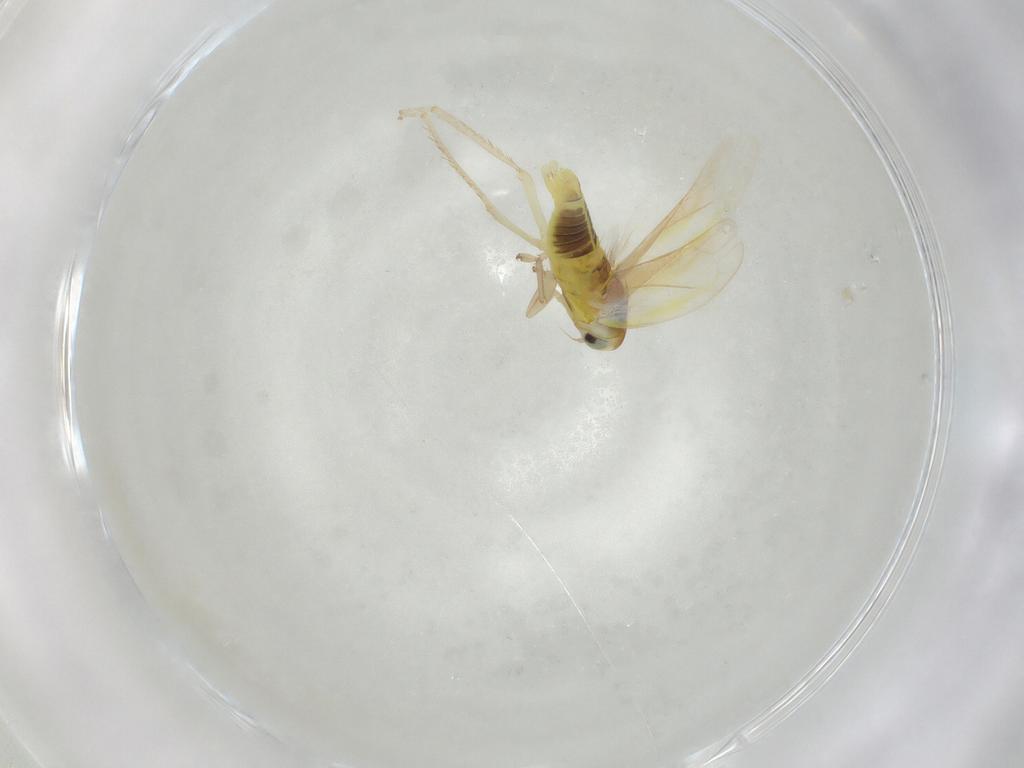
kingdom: Animalia
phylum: Arthropoda
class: Insecta
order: Hemiptera
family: Cicadellidae
